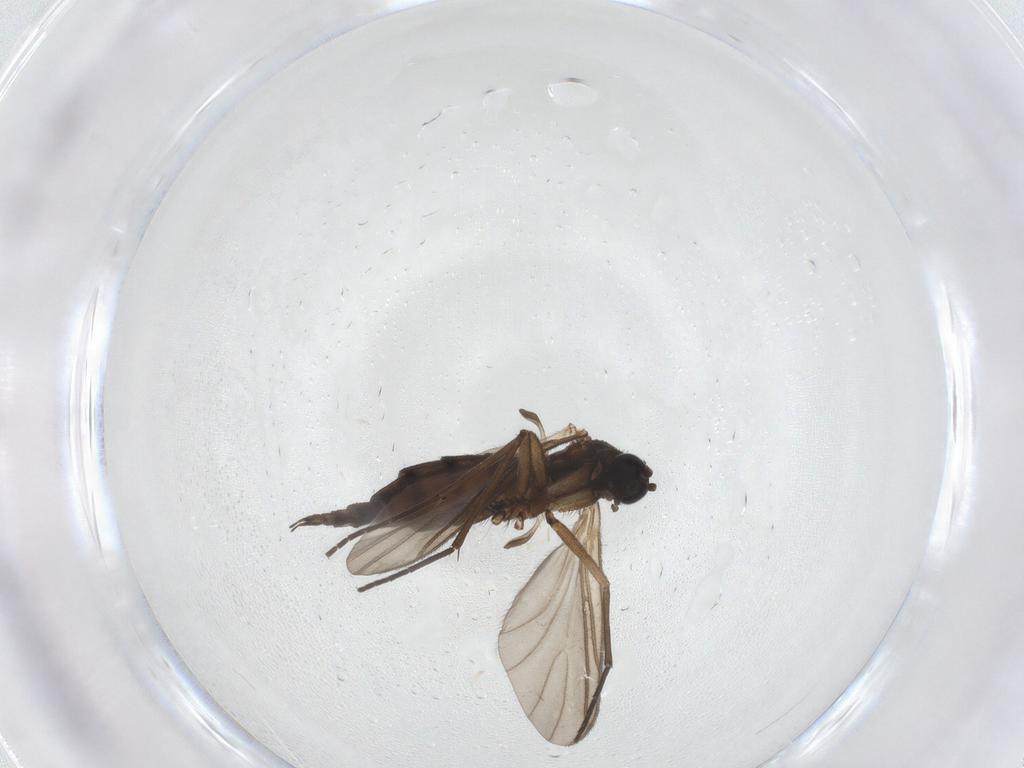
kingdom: Animalia
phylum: Arthropoda
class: Insecta
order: Diptera
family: Sciaridae
